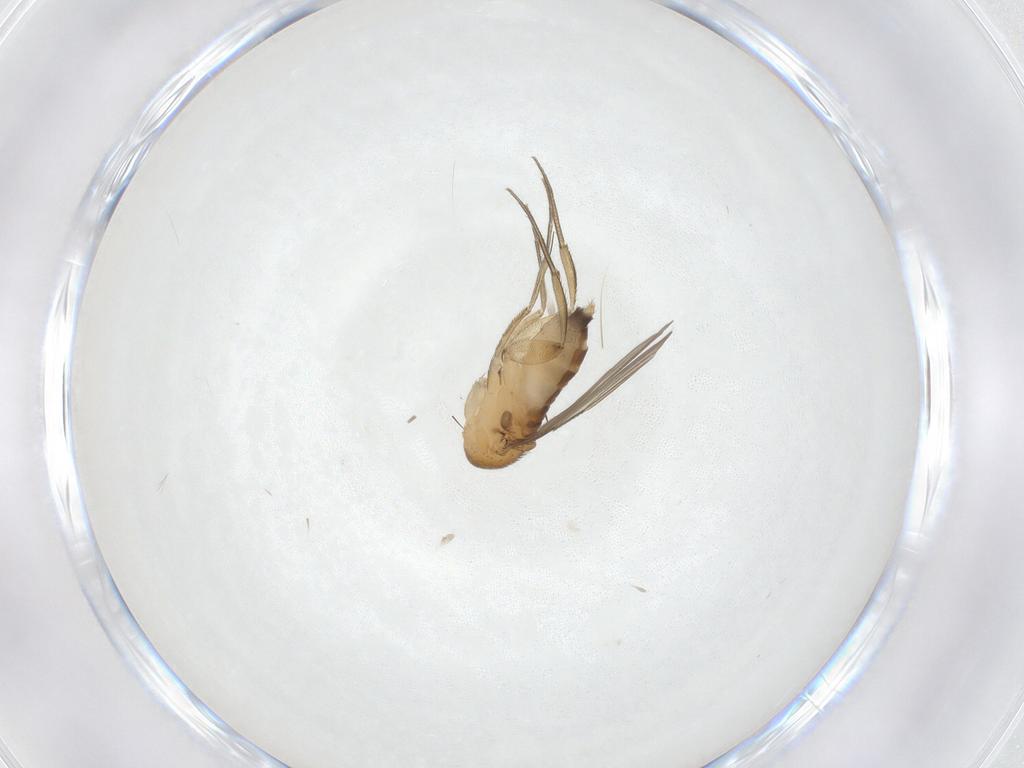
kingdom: Animalia
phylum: Arthropoda
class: Insecta
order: Diptera
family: Phoridae
